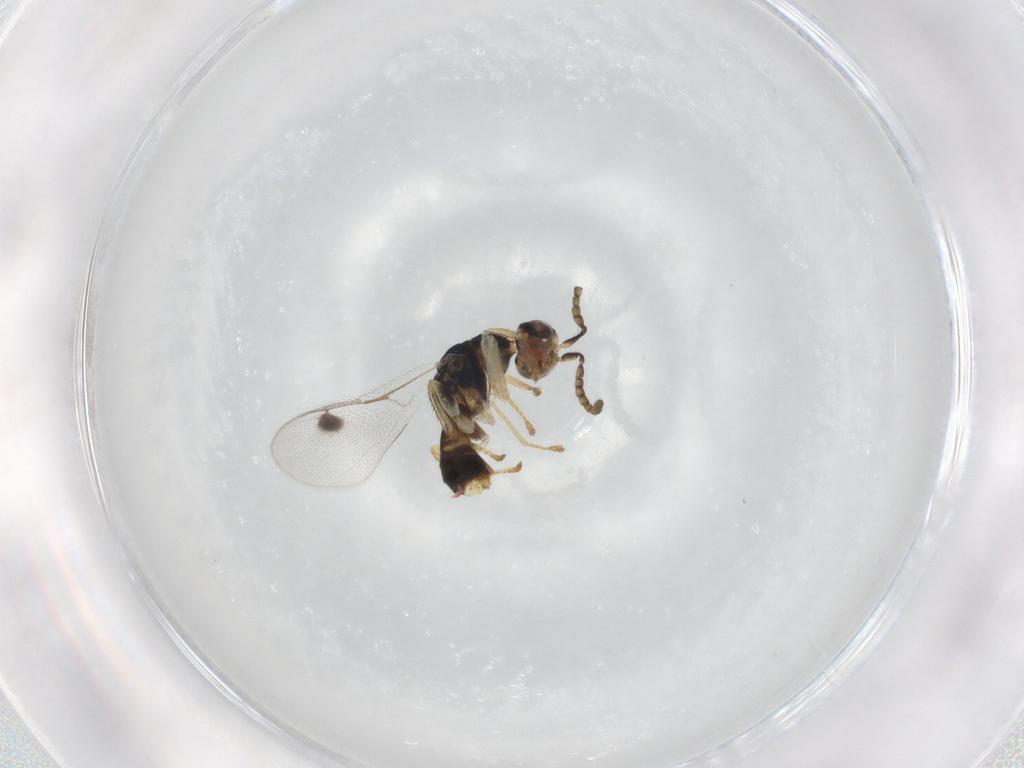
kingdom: Animalia
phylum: Arthropoda
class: Insecta
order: Hymenoptera
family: Megastigmidae
